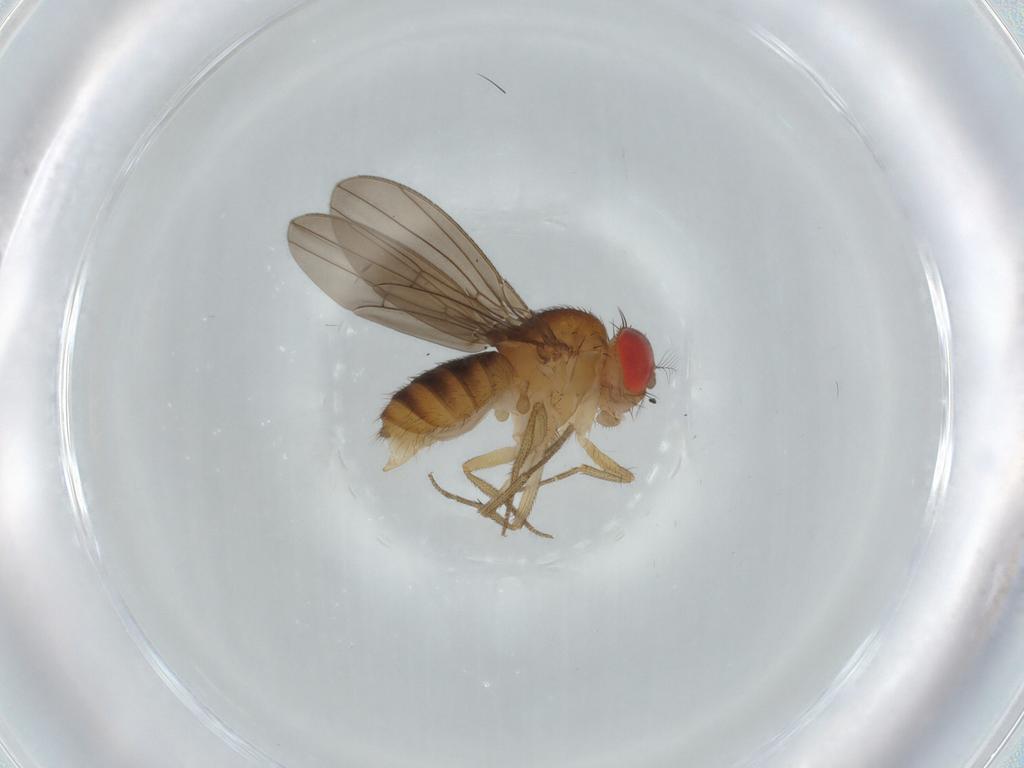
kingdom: Animalia
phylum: Arthropoda
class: Insecta
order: Diptera
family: Drosophilidae
